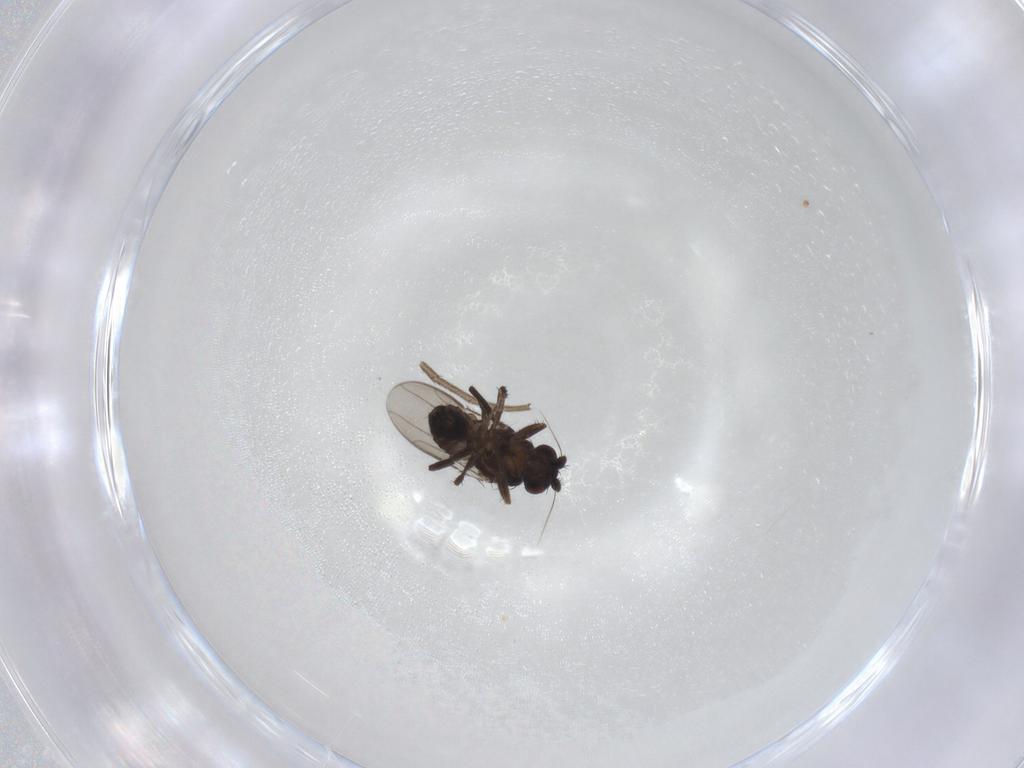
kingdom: Animalia
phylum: Arthropoda
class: Insecta
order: Diptera
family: Sphaeroceridae
